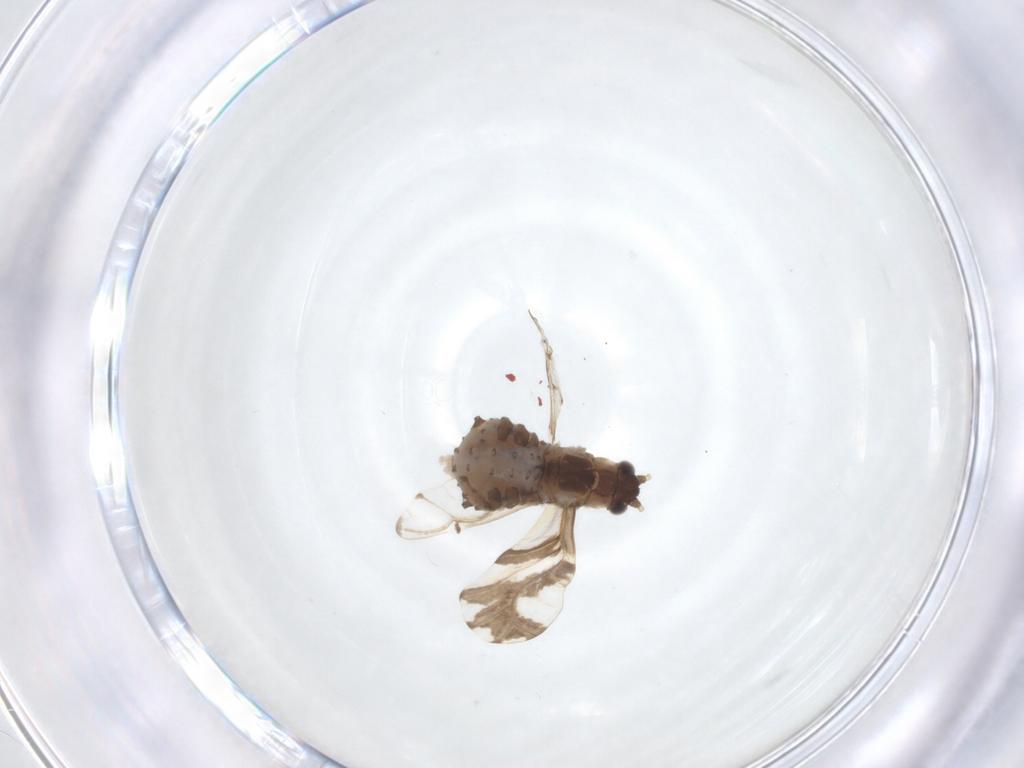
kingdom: Animalia
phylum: Arthropoda
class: Insecta
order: Hemiptera
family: Aphididae
